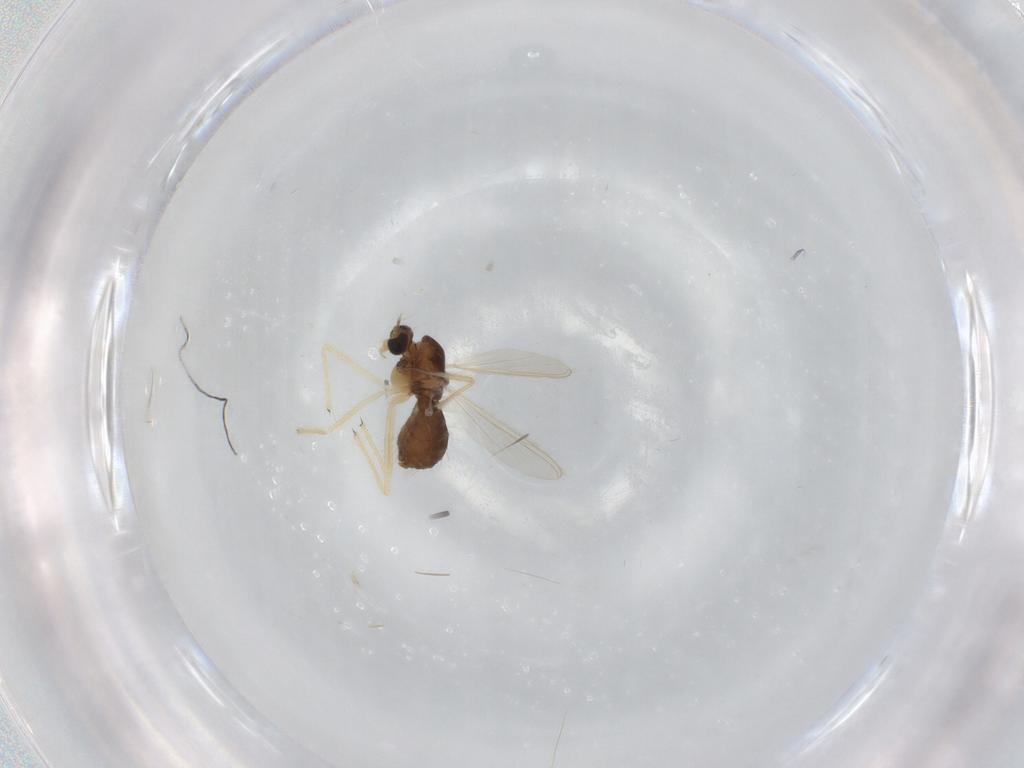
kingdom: Animalia
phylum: Arthropoda
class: Insecta
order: Diptera
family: Chironomidae
